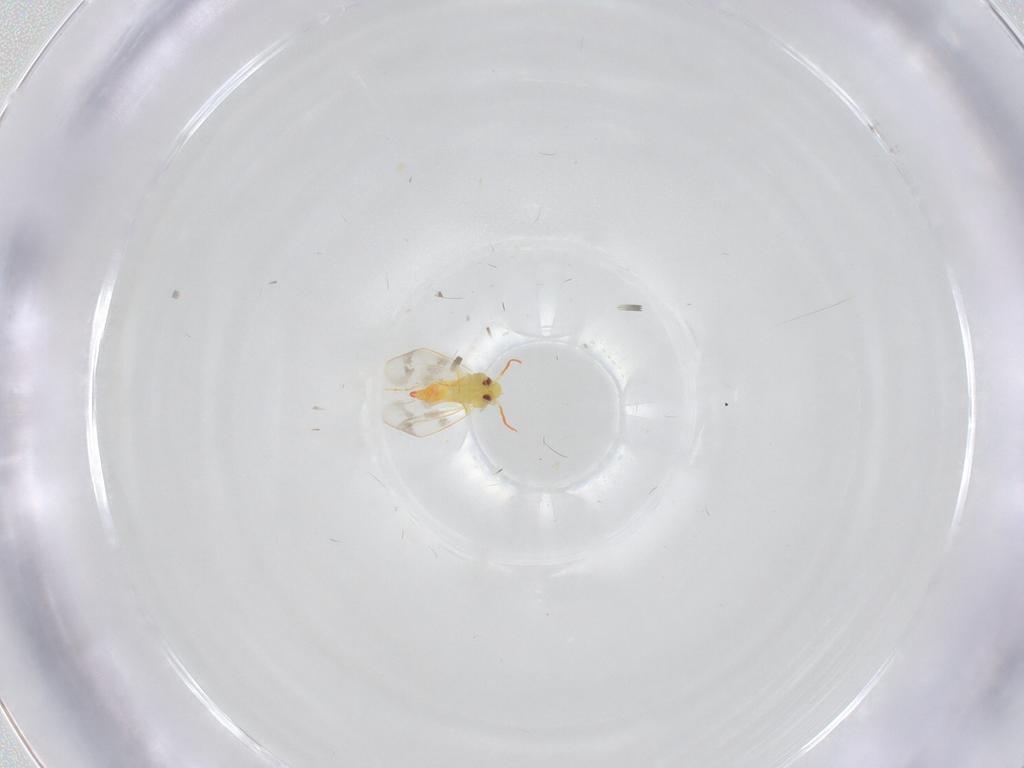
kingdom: Animalia
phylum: Arthropoda
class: Insecta
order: Diptera
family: Chironomidae
